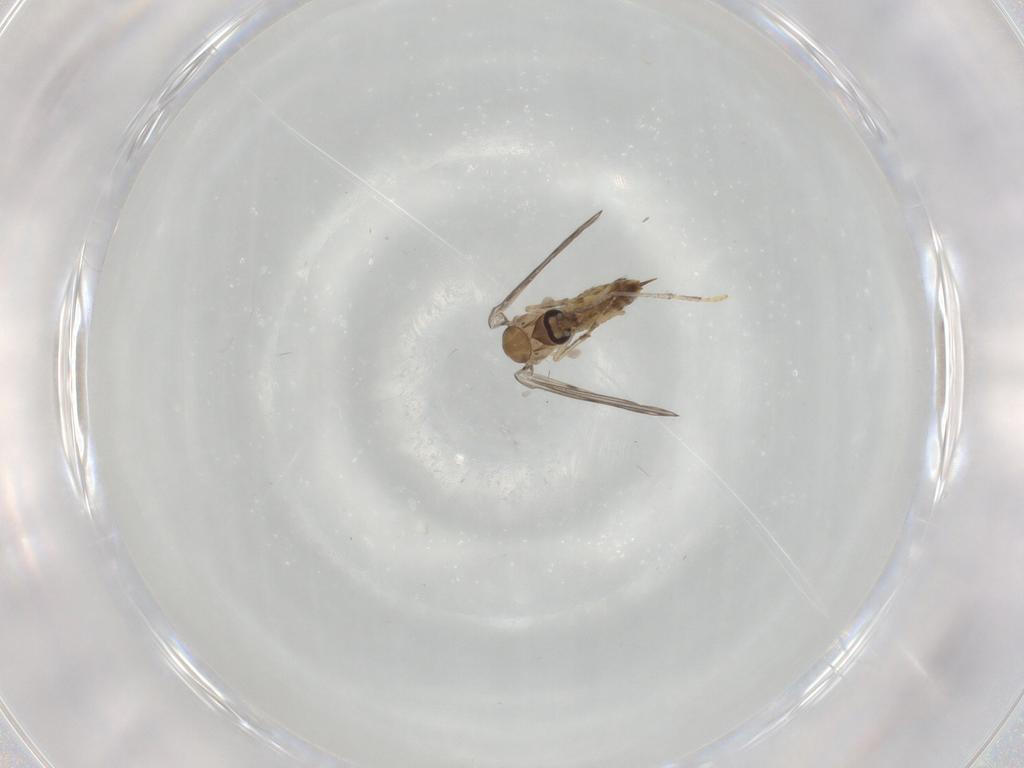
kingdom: Animalia
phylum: Arthropoda
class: Insecta
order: Diptera
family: Psychodidae
